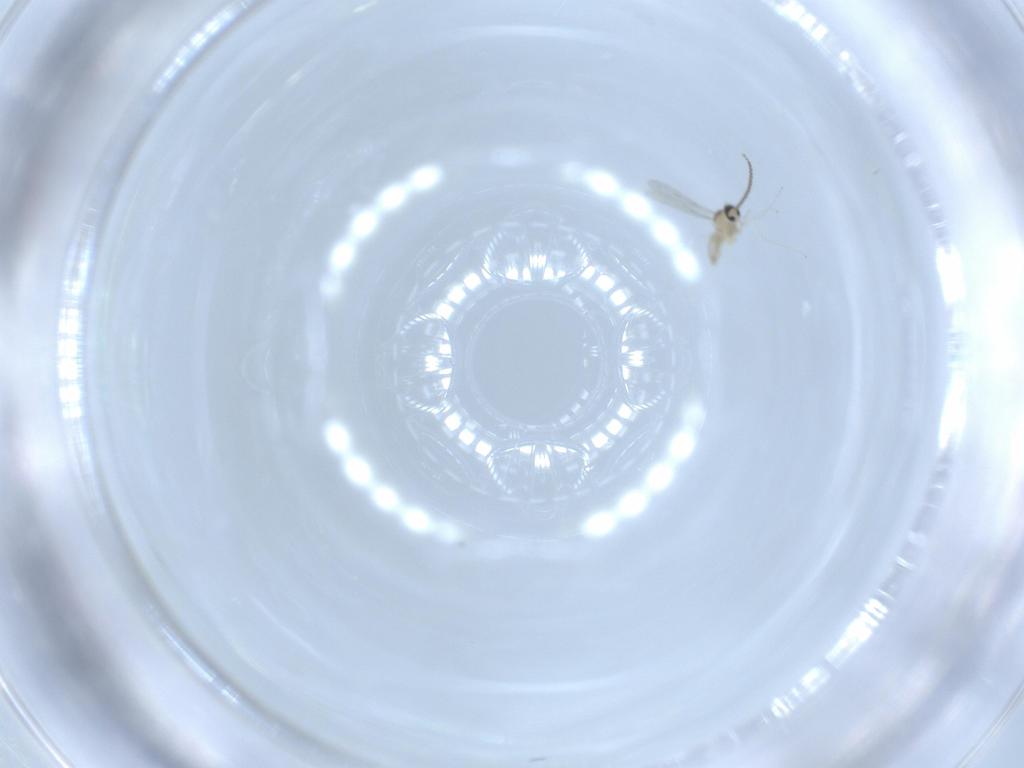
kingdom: Animalia
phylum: Arthropoda
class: Insecta
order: Diptera
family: Cecidomyiidae
